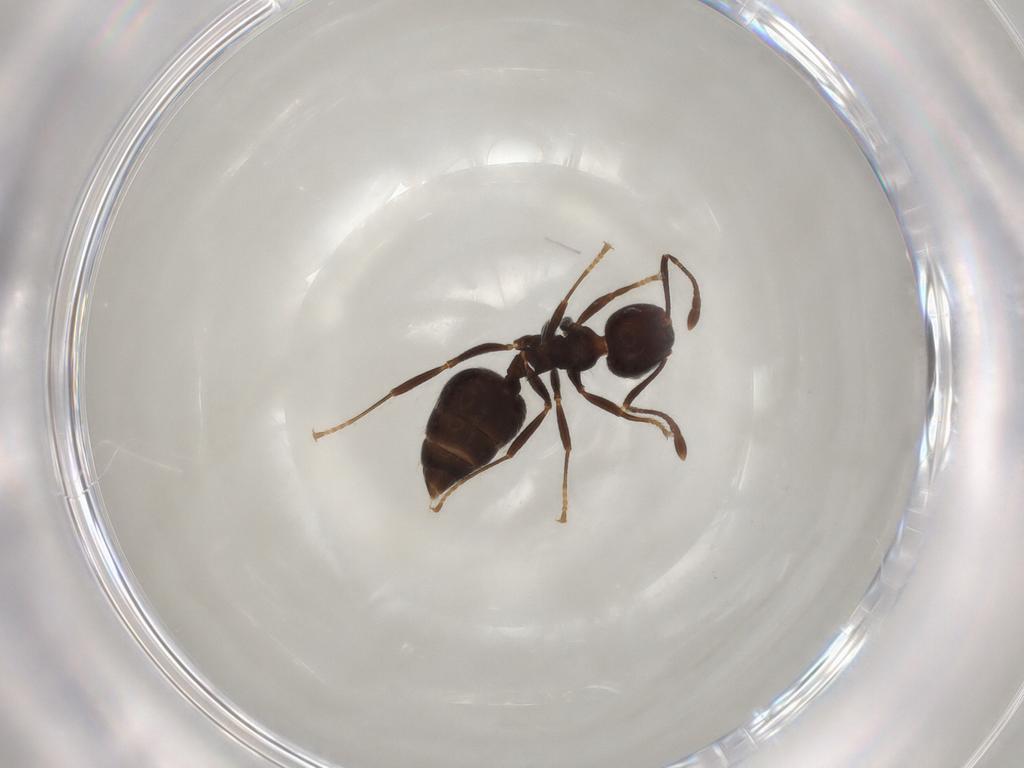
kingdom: Animalia
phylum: Arthropoda
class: Insecta
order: Hymenoptera
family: Formicidae
